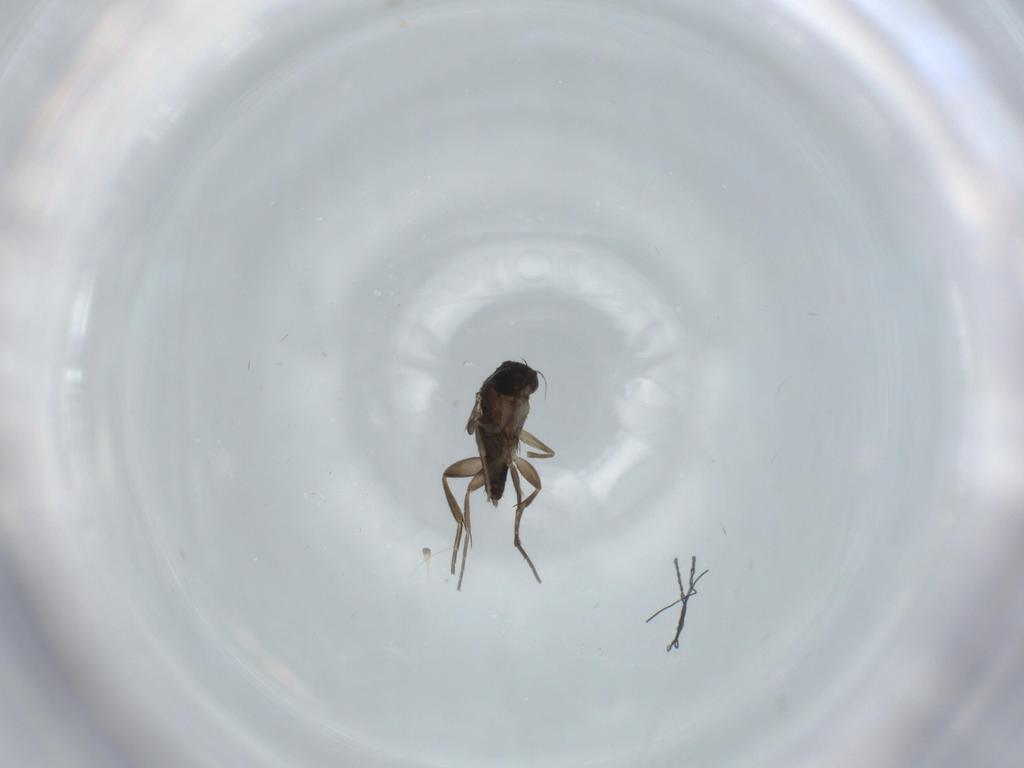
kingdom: Animalia
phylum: Arthropoda
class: Insecta
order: Diptera
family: Phoridae
